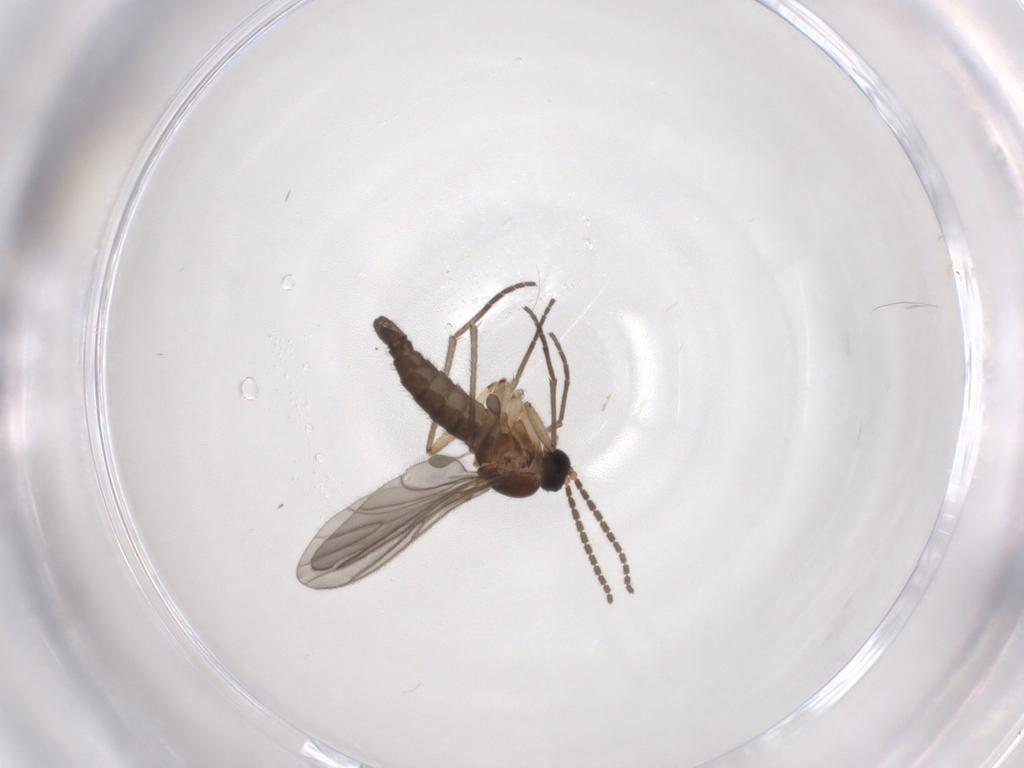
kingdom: Animalia
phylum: Arthropoda
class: Insecta
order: Diptera
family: Sciaridae
